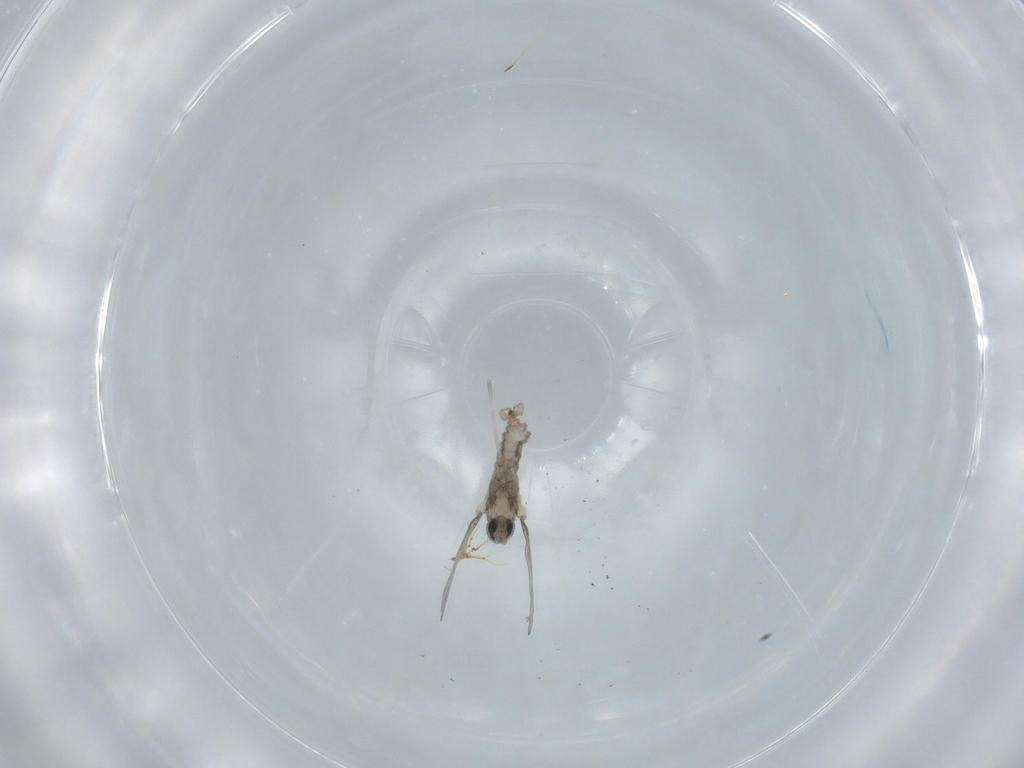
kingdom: Animalia
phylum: Arthropoda
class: Insecta
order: Diptera
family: Cecidomyiidae
